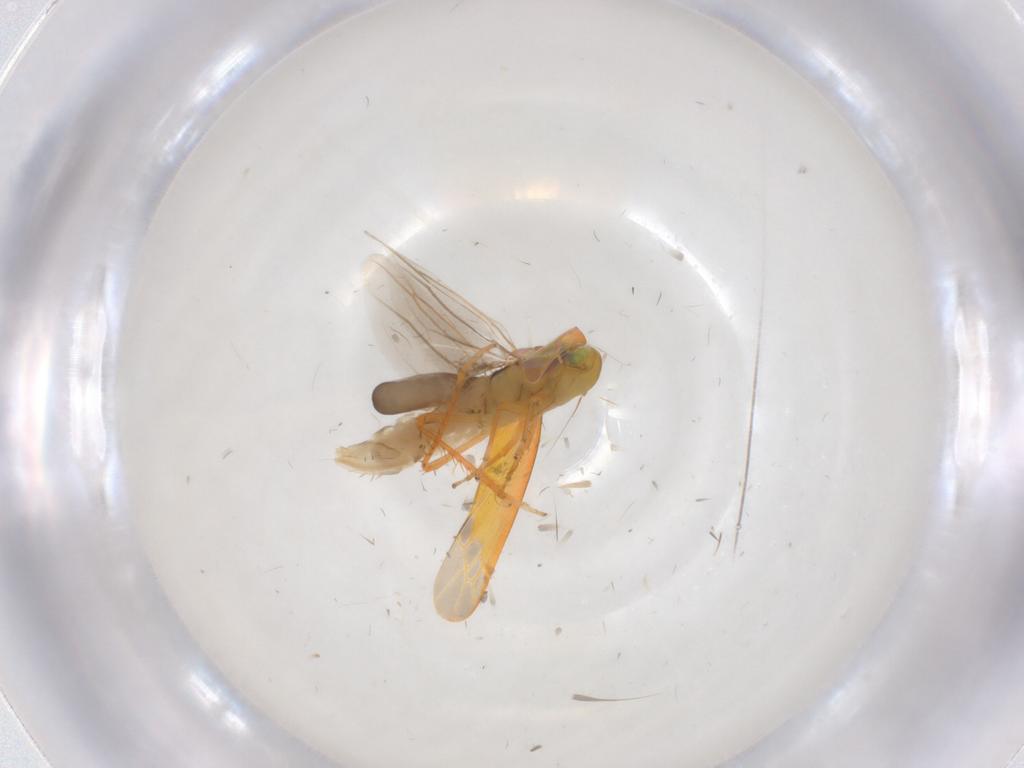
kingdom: Animalia
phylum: Arthropoda
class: Insecta
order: Hemiptera
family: Cicadellidae
